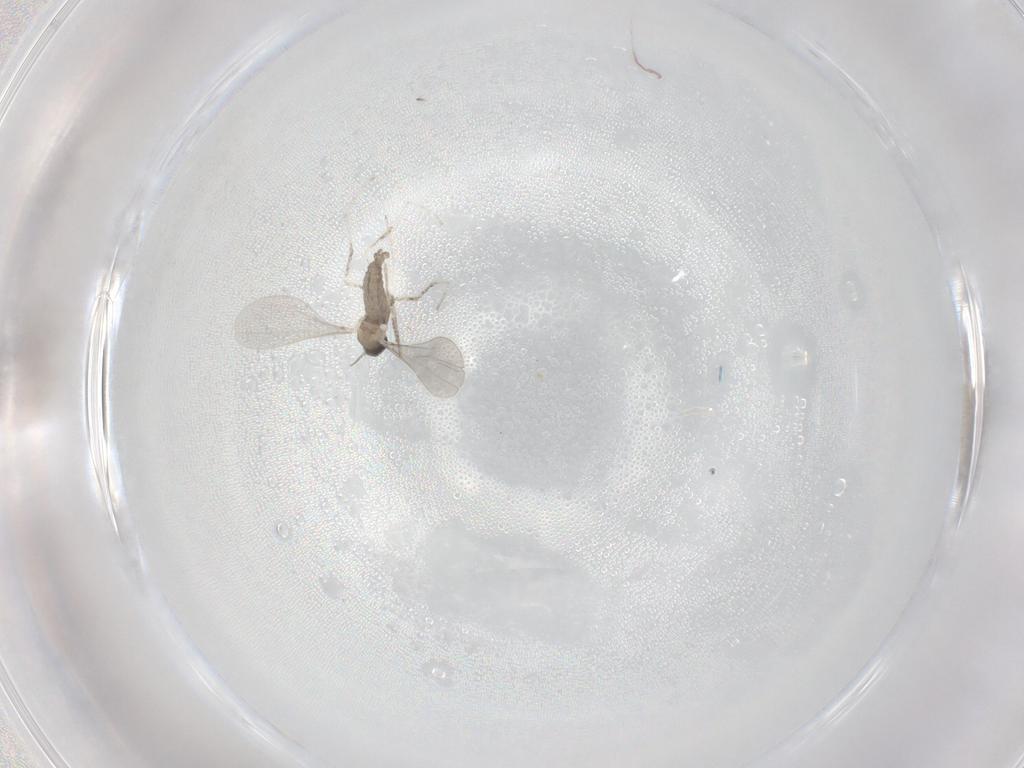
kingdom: Animalia
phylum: Arthropoda
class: Insecta
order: Diptera
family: Cecidomyiidae
